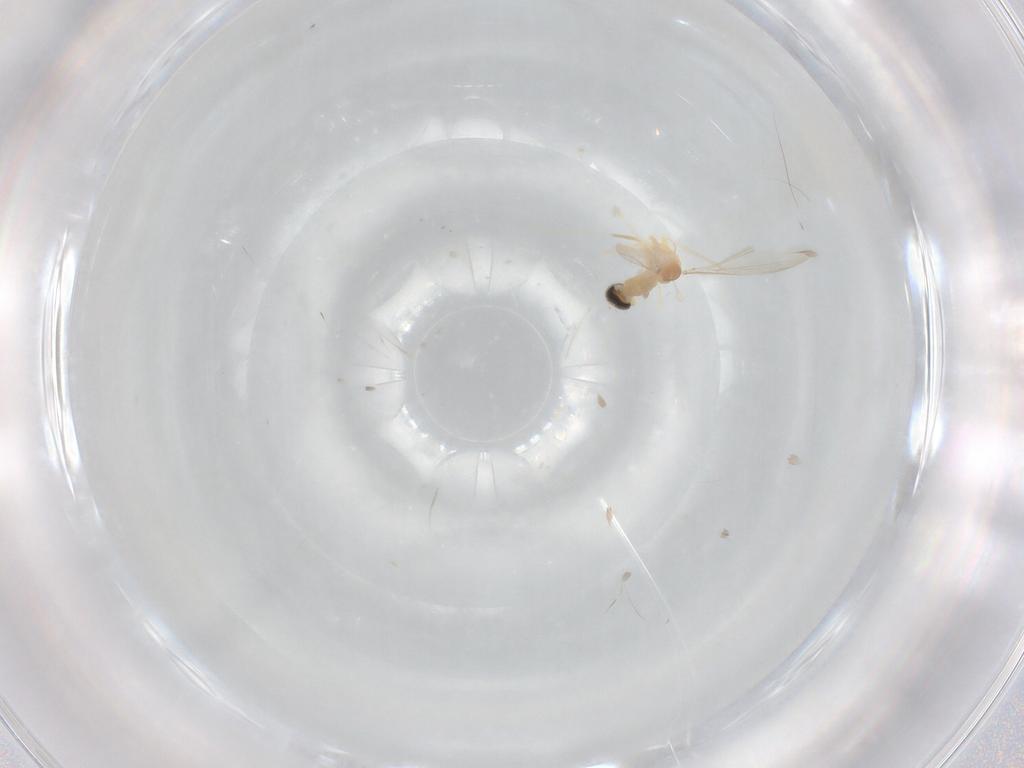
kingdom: Animalia
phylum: Arthropoda
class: Insecta
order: Diptera
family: Cecidomyiidae
